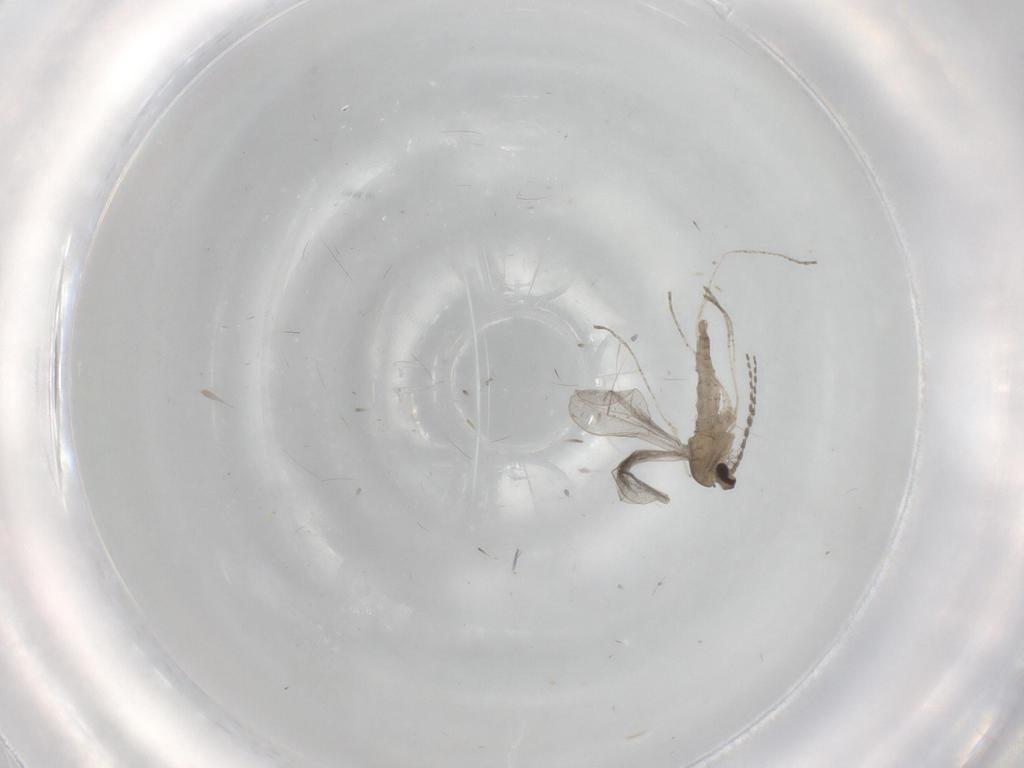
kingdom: Animalia
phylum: Arthropoda
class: Insecta
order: Diptera
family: Cecidomyiidae
